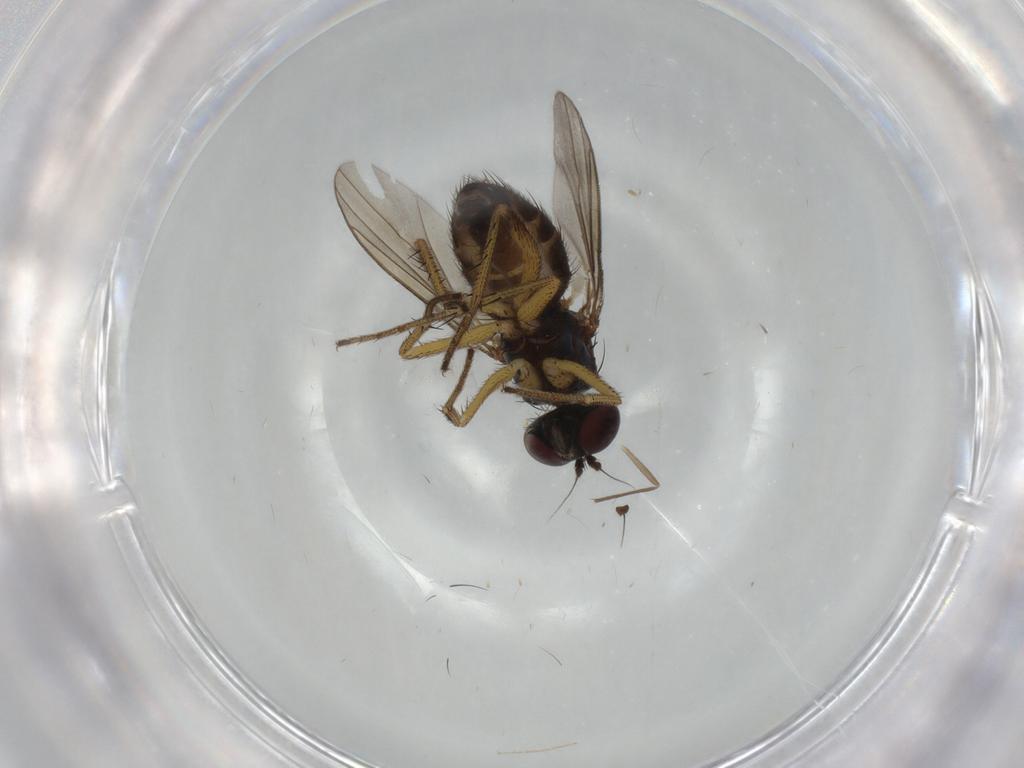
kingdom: Animalia
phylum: Arthropoda
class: Insecta
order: Diptera
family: Dolichopodidae
